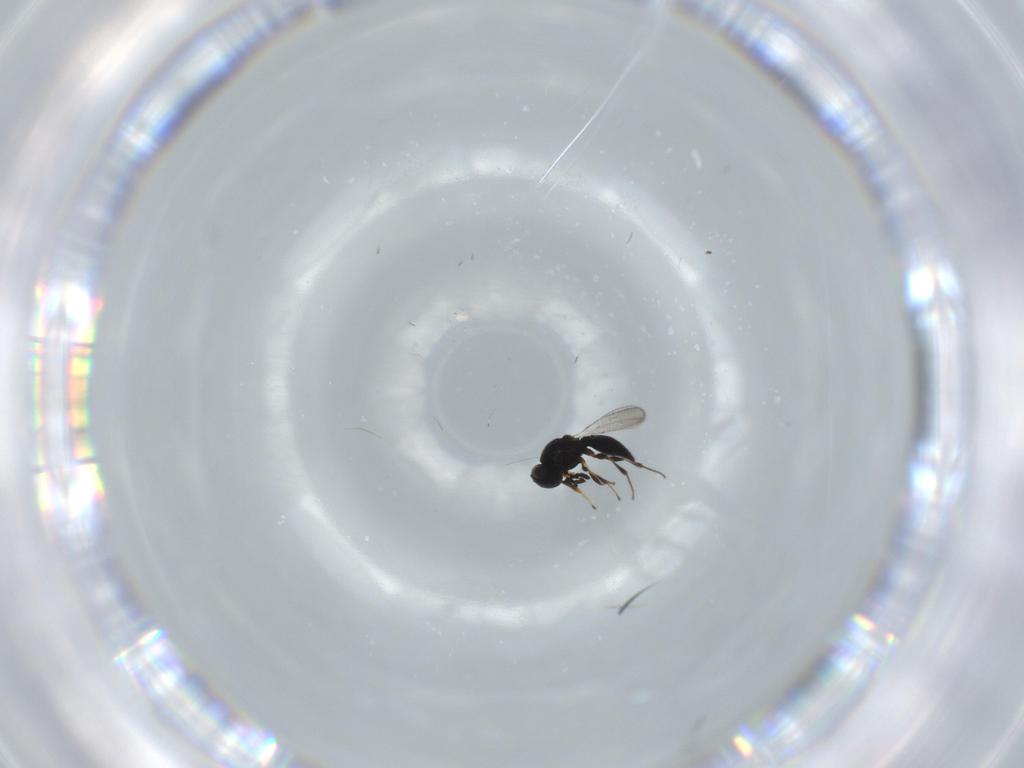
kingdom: Animalia
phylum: Arthropoda
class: Insecta
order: Hymenoptera
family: Platygastridae
